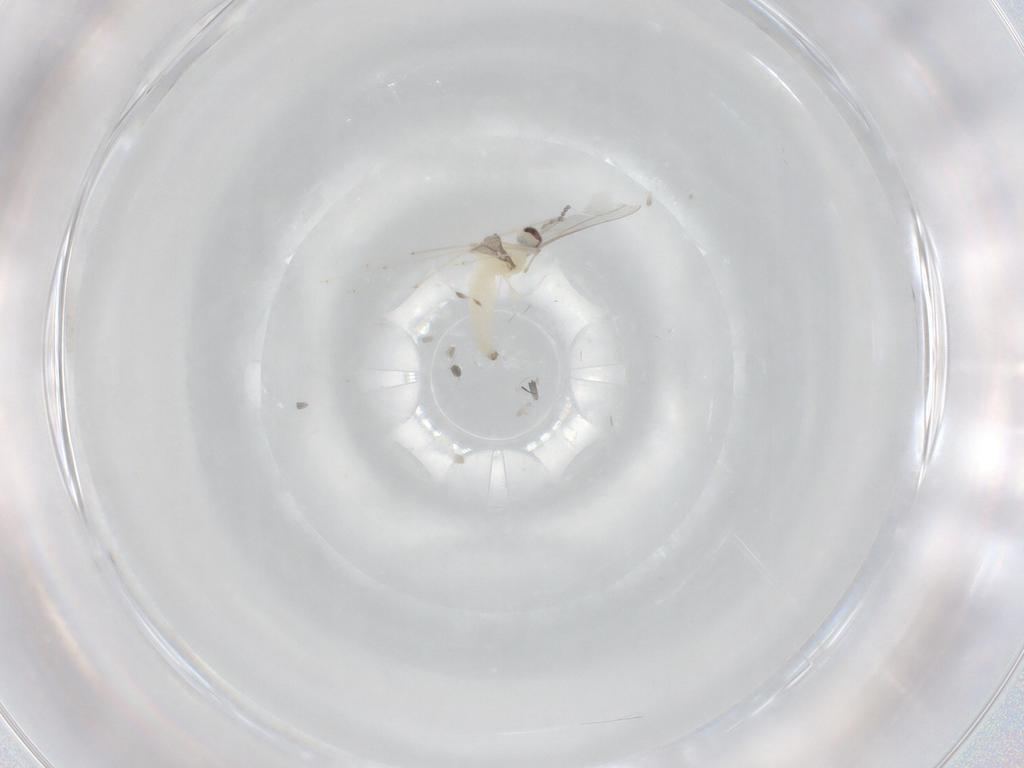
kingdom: Animalia
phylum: Arthropoda
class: Insecta
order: Diptera
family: Cecidomyiidae
